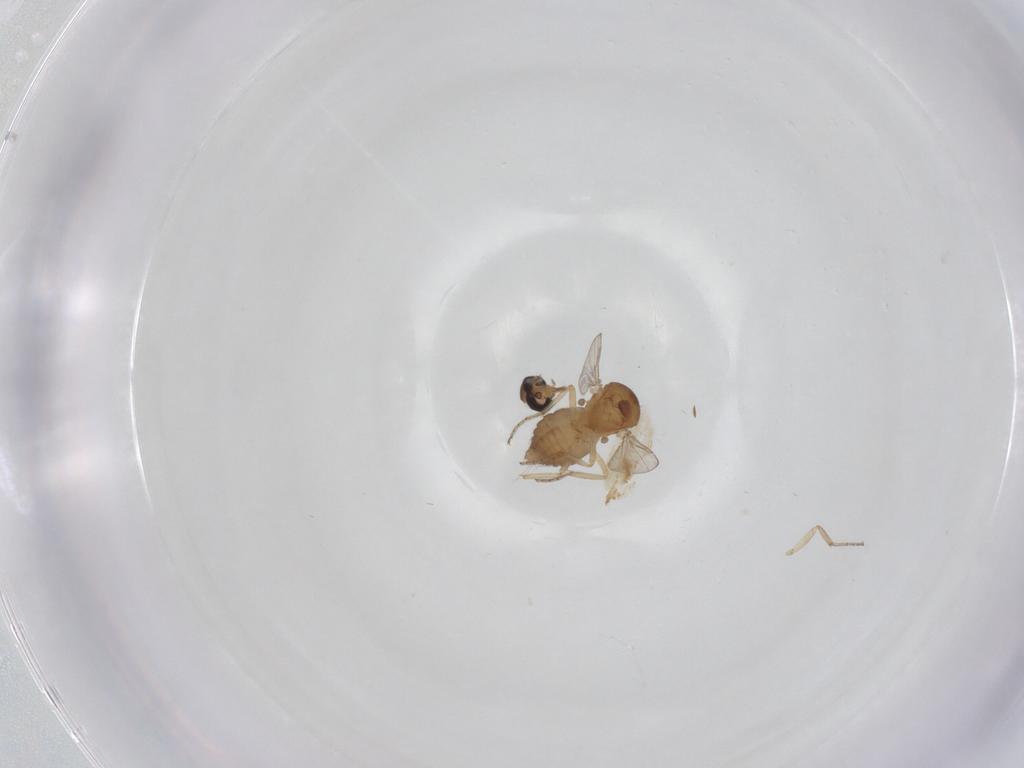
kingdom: Animalia
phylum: Arthropoda
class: Insecta
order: Diptera
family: Ceratopogonidae
